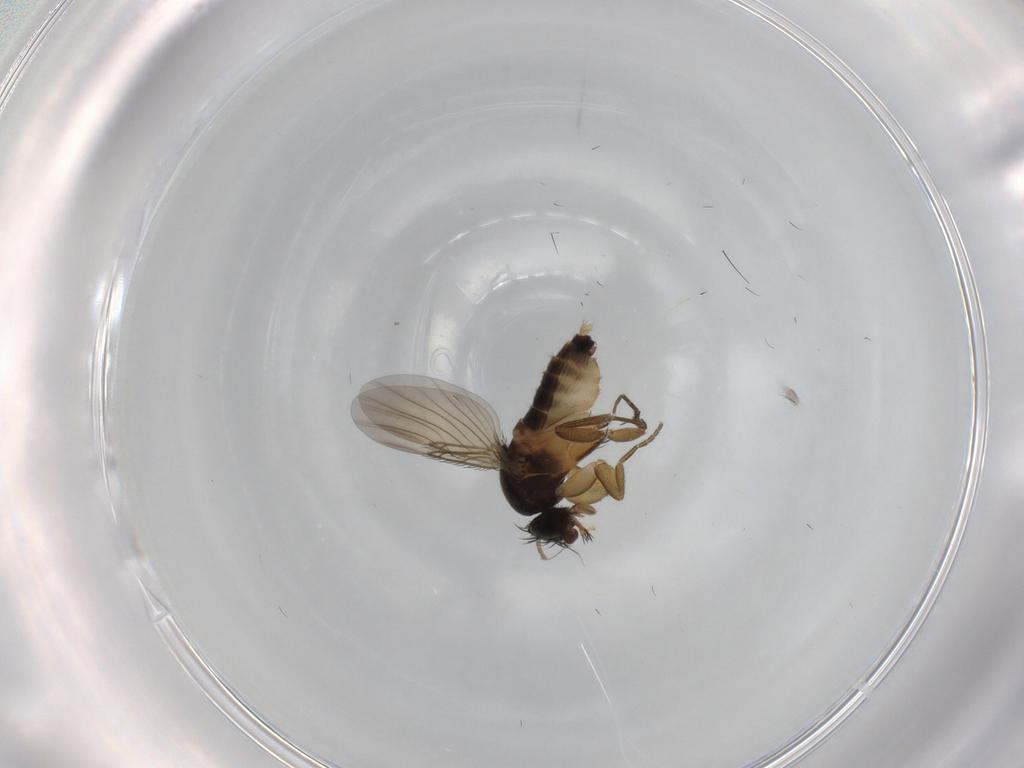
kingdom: Animalia
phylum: Arthropoda
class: Insecta
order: Diptera
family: Phoridae
